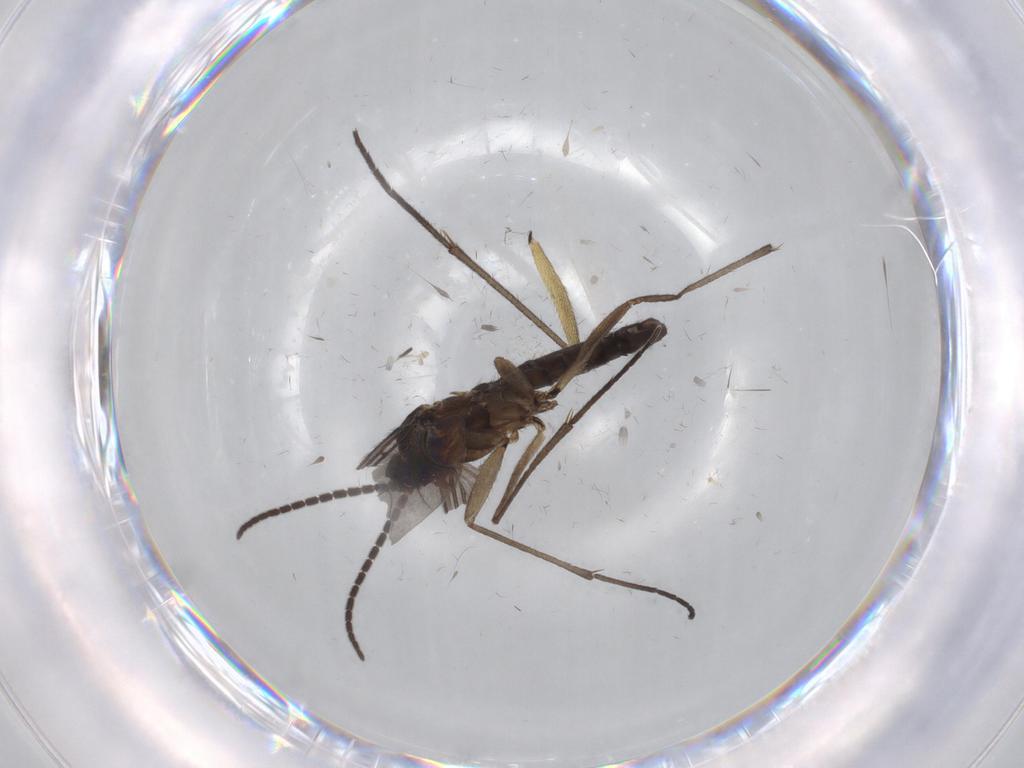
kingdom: Animalia
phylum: Arthropoda
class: Insecta
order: Diptera
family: Sciaridae
